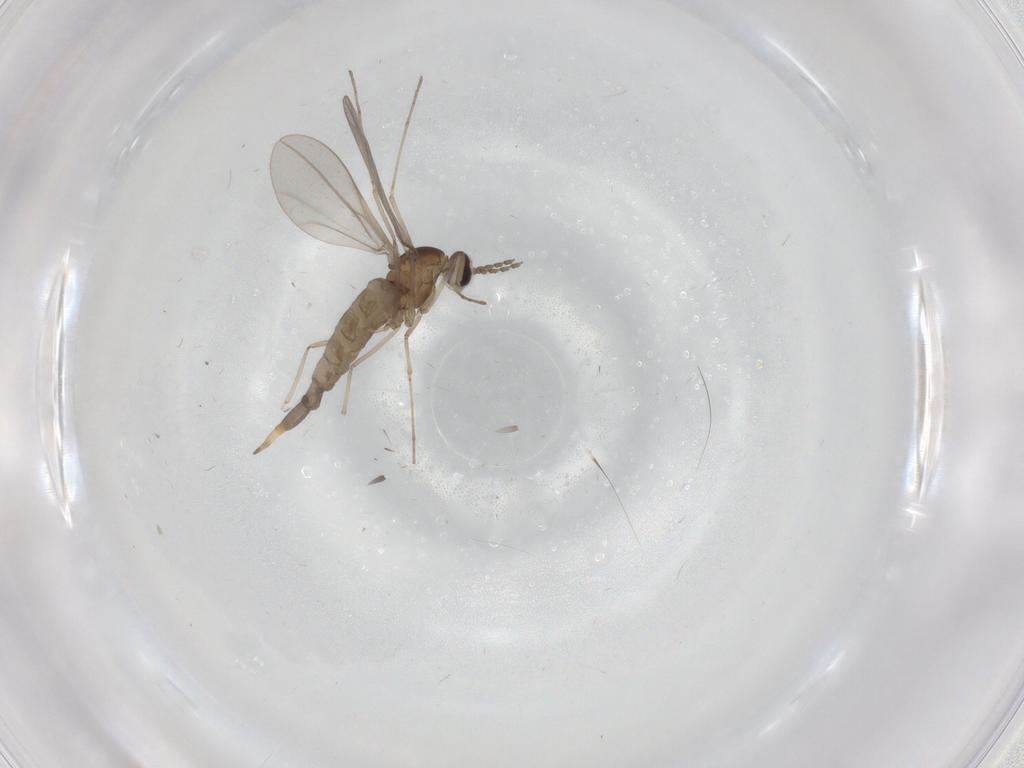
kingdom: Animalia
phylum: Arthropoda
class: Insecta
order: Diptera
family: Cecidomyiidae
